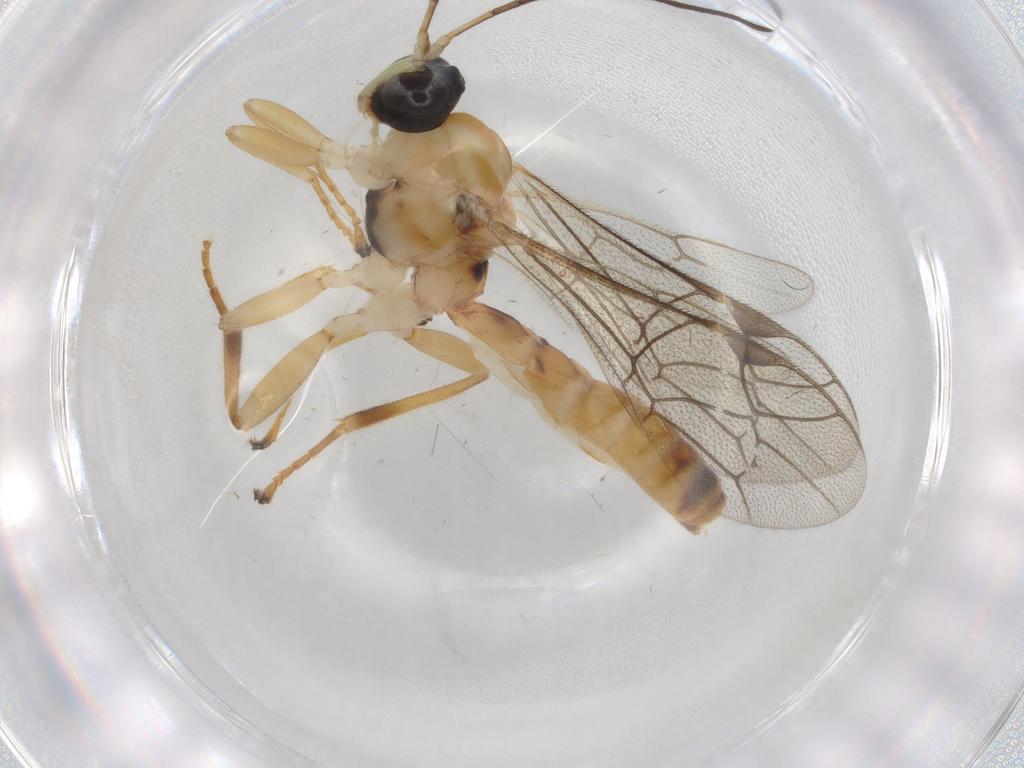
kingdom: Animalia
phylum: Arthropoda
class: Insecta
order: Hymenoptera
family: Ichneumonidae
